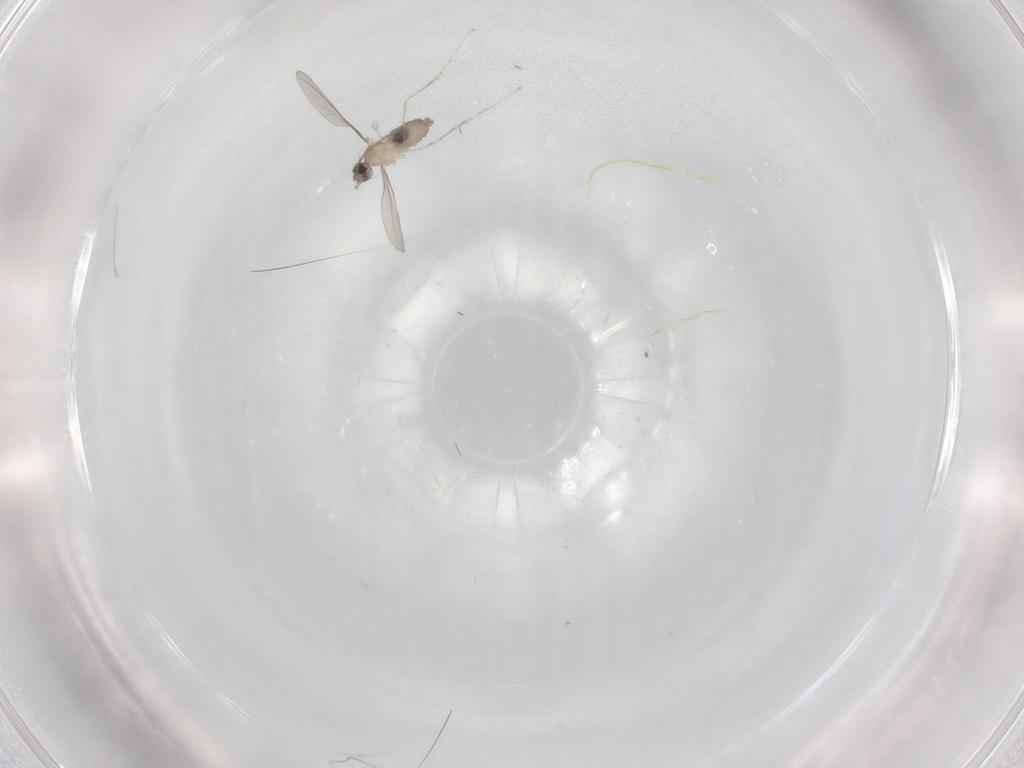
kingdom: Animalia
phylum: Arthropoda
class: Insecta
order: Diptera
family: Cecidomyiidae
